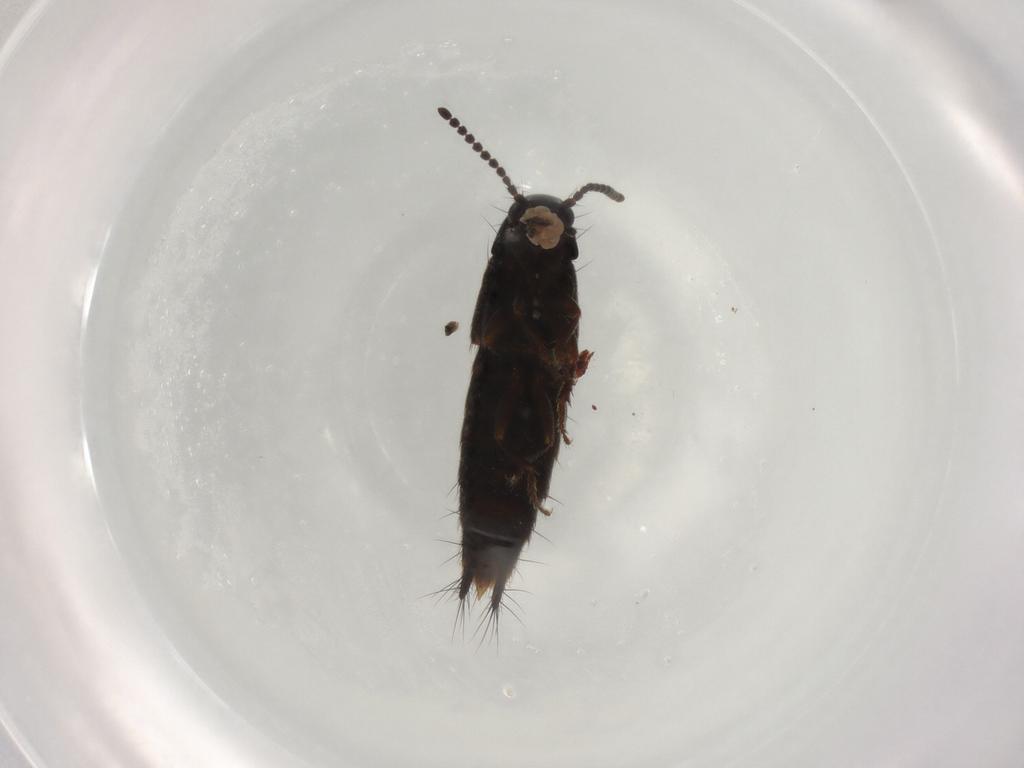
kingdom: Animalia
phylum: Arthropoda
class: Insecta
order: Coleoptera
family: Staphylinidae
